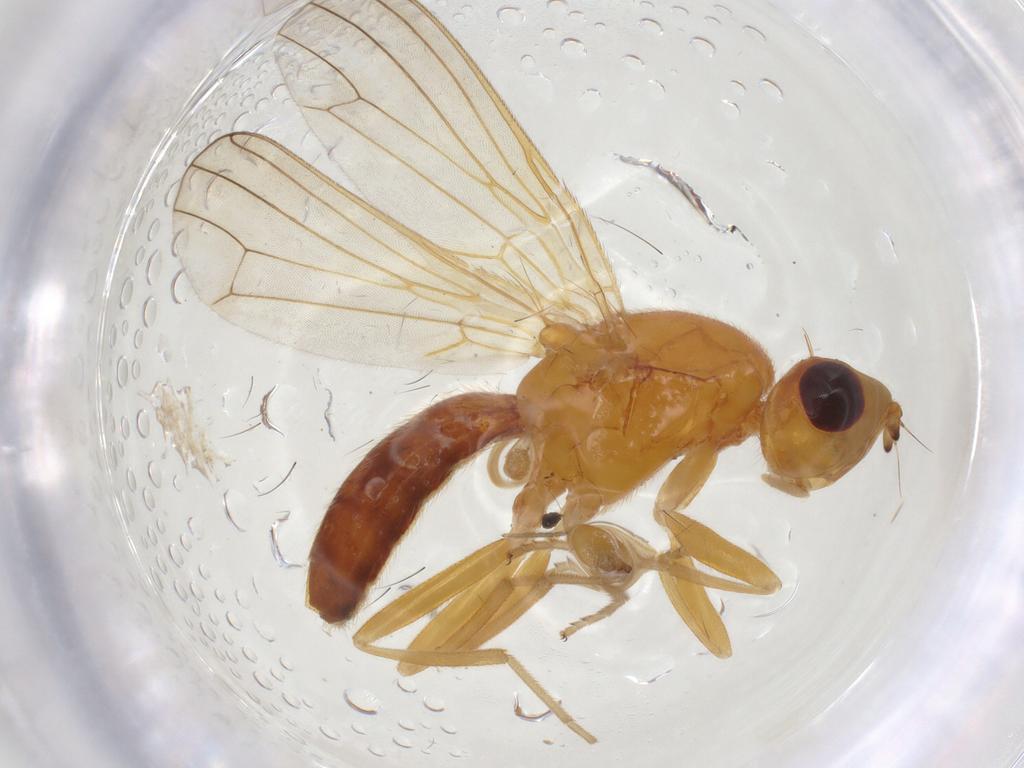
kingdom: Animalia
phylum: Arthropoda
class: Insecta
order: Diptera
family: Chironomidae
